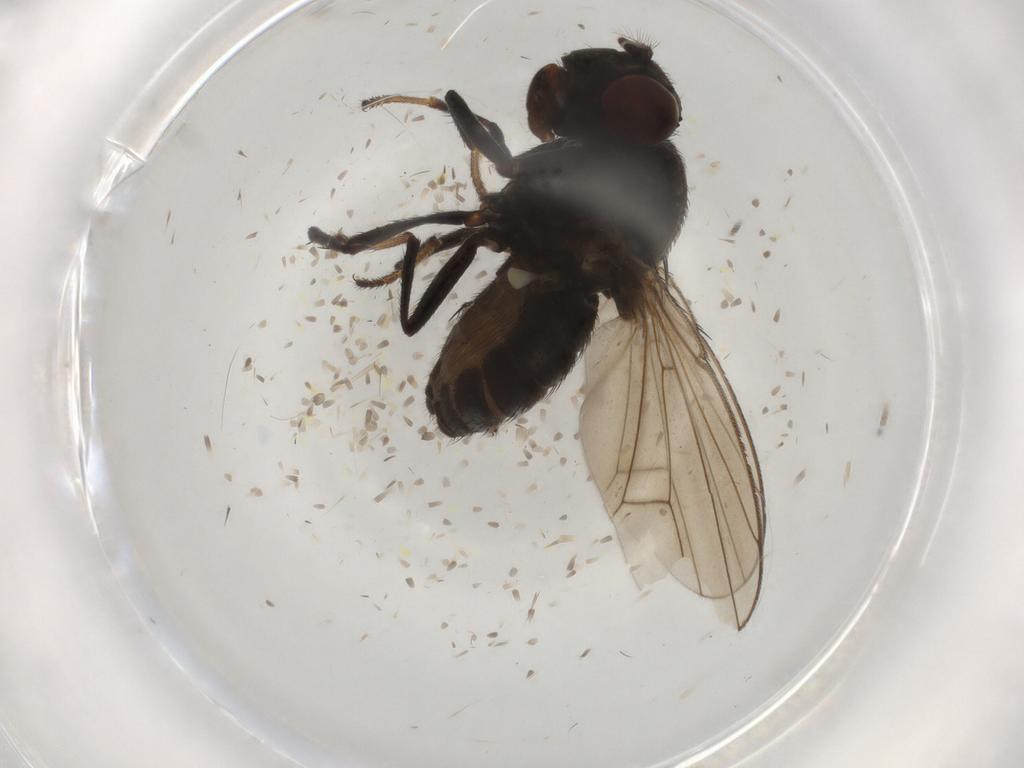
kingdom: Animalia
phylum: Arthropoda
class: Insecta
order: Diptera
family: Ephydridae
